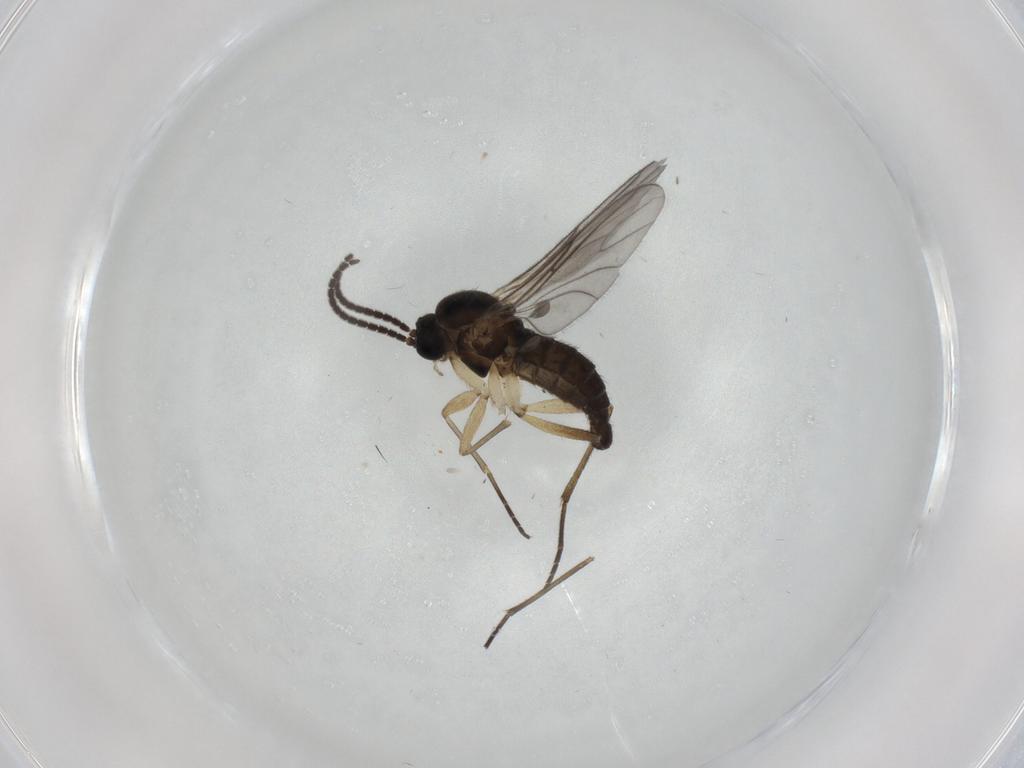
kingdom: Animalia
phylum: Arthropoda
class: Insecta
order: Diptera
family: Sciaridae
